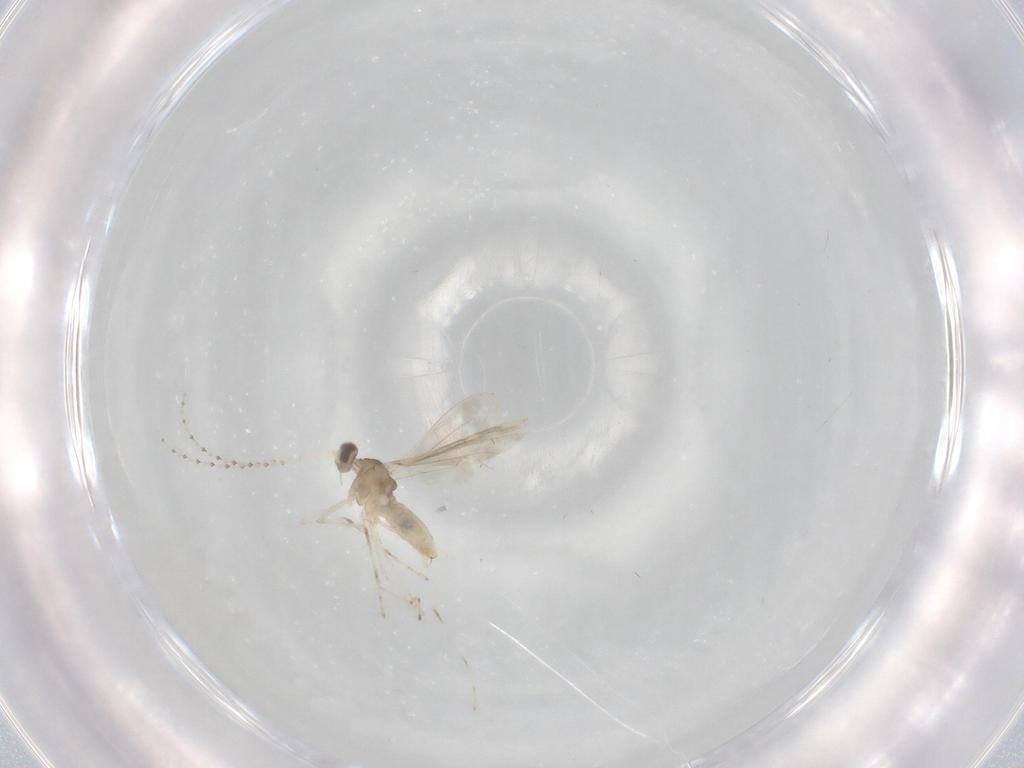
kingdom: Animalia
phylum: Arthropoda
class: Insecta
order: Diptera
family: Cecidomyiidae
